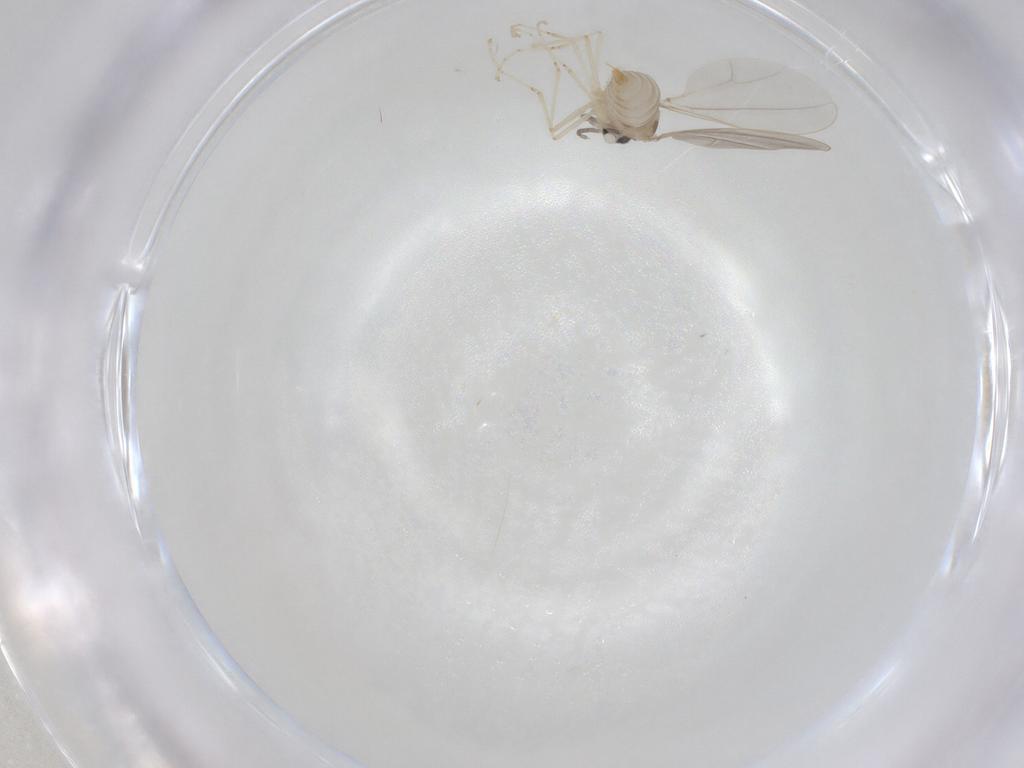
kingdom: Animalia
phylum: Arthropoda
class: Insecta
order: Diptera
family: Cecidomyiidae
